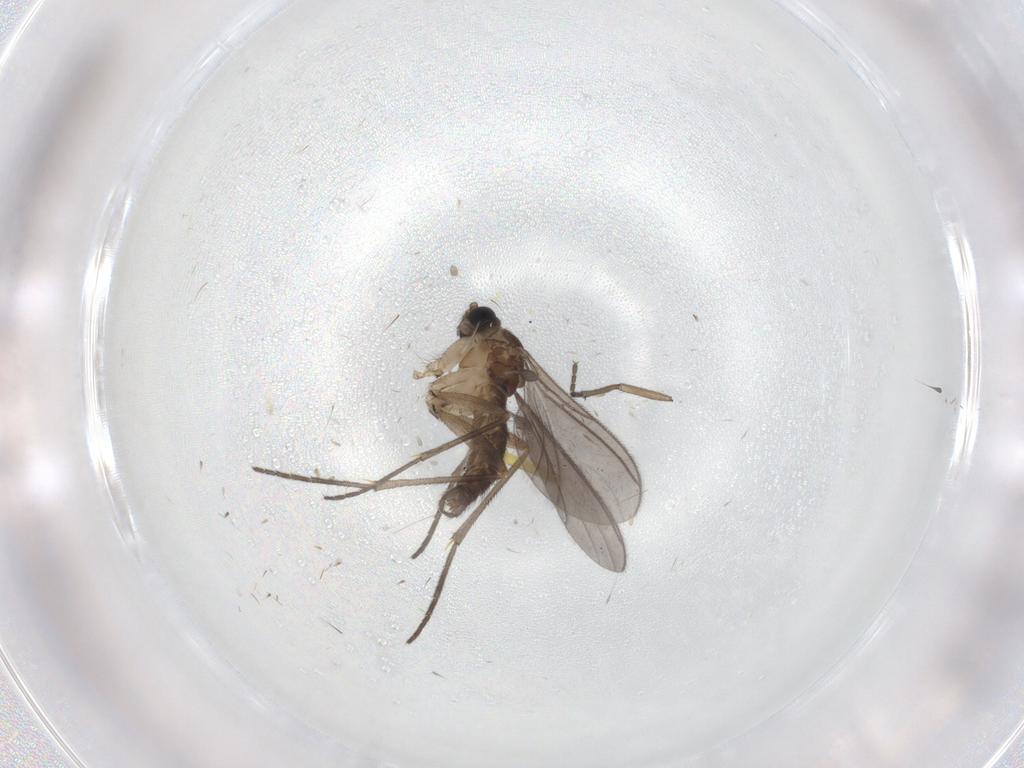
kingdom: Animalia
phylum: Arthropoda
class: Insecta
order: Diptera
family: Sciaridae
